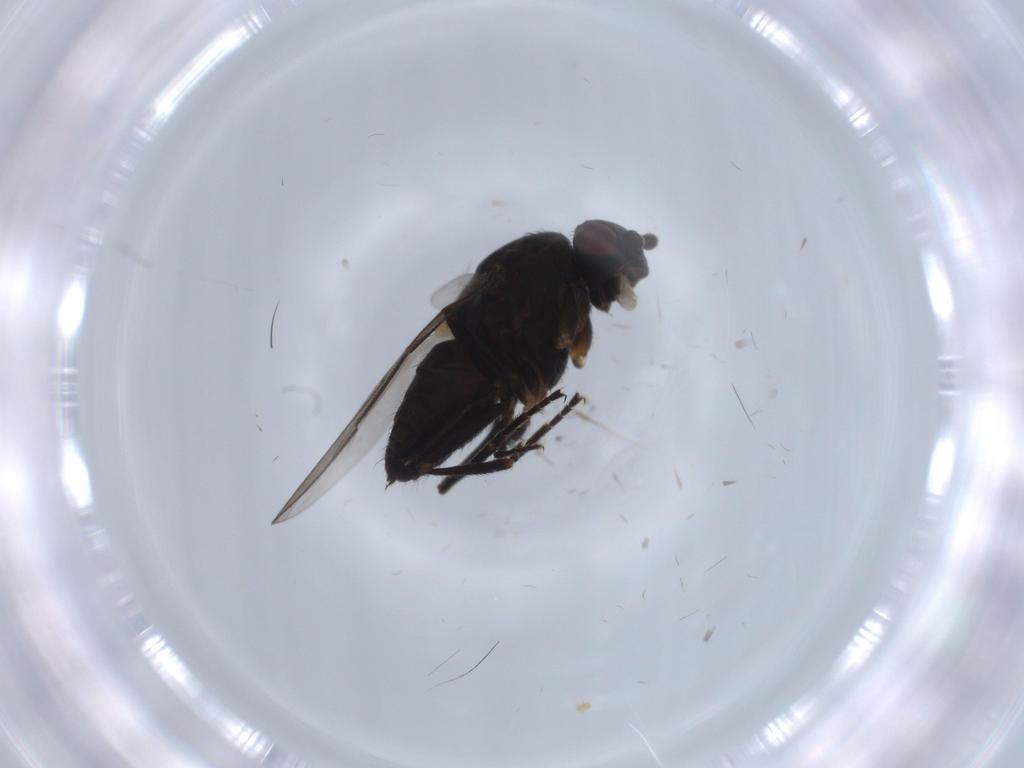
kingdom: Animalia
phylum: Arthropoda
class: Insecta
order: Diptera
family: Sphaeroceridae
